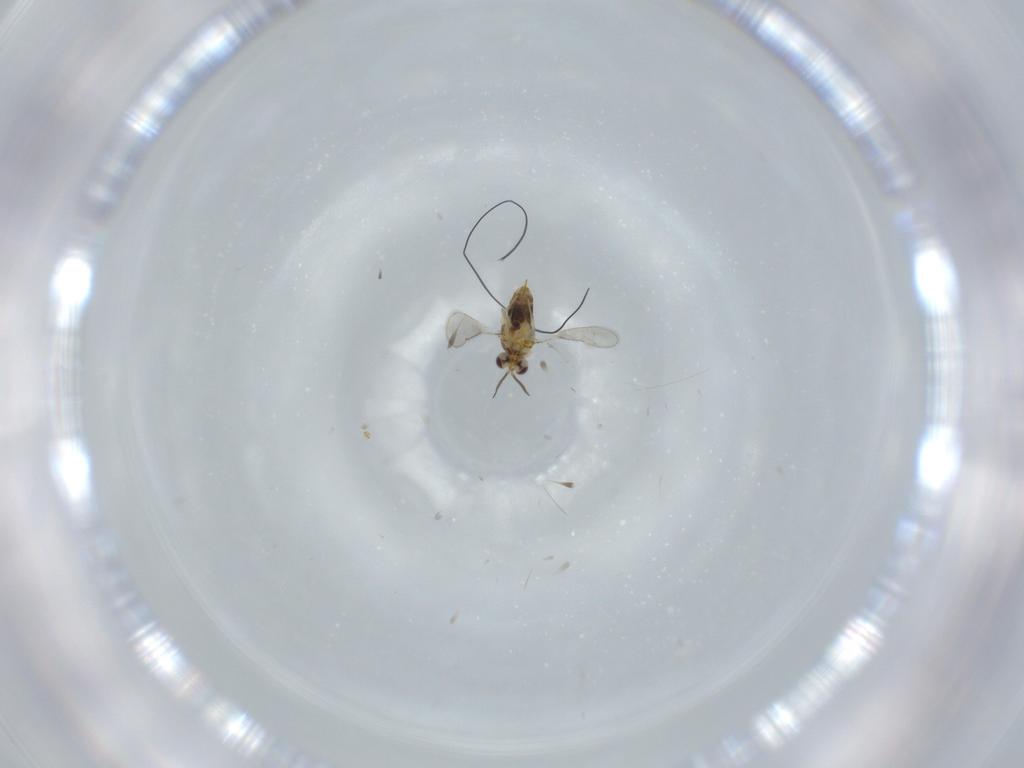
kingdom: Animalia
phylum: Arthropoda
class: Insecta
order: Diptera
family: Cecidomyiidae
